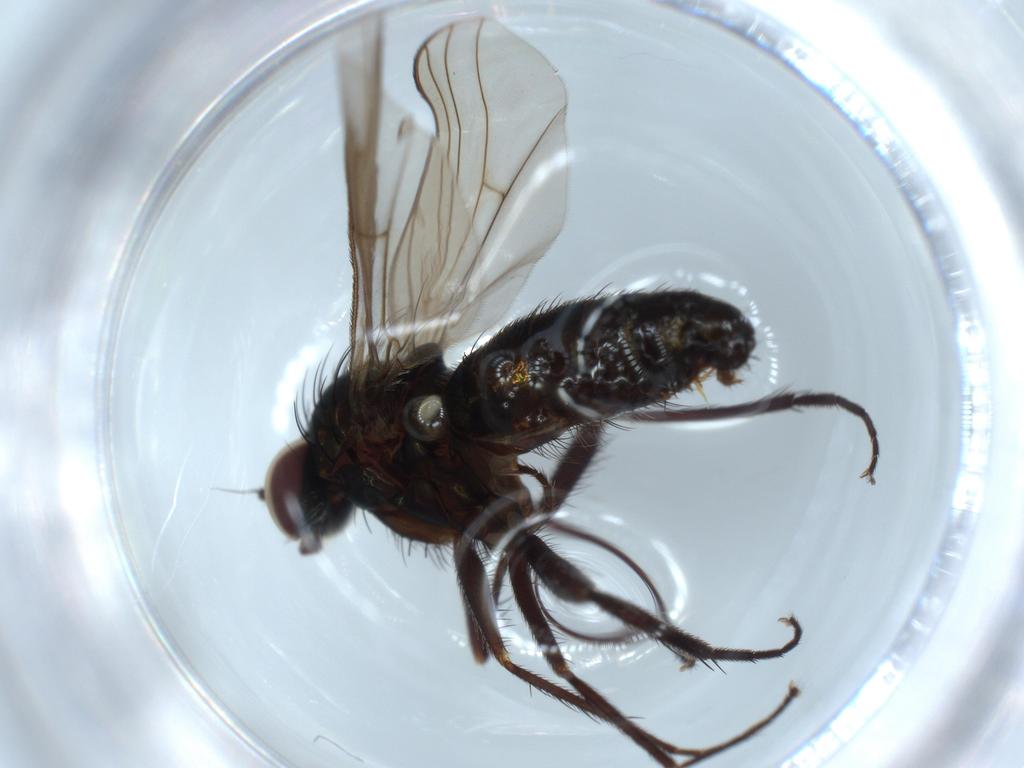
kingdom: Animalia
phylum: Arthropoda
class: Insecta
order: Diptera
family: Dolichopodidae
